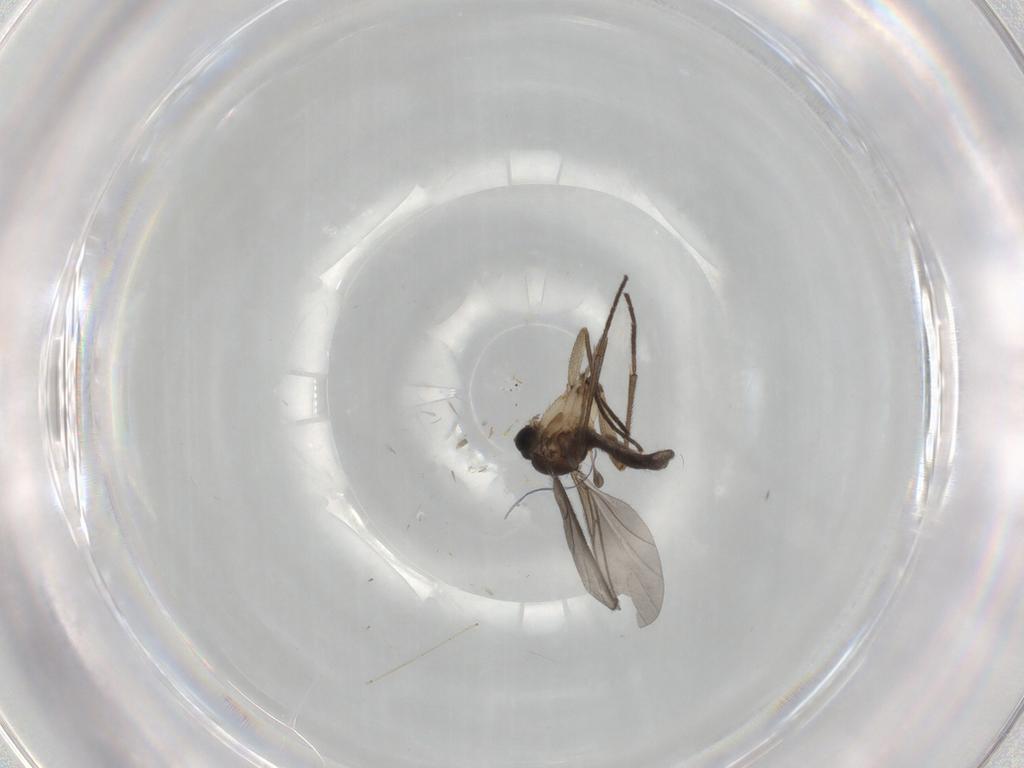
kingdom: Animalia
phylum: Arthropoda
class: Insecta
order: Diptera
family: Sciaridae
